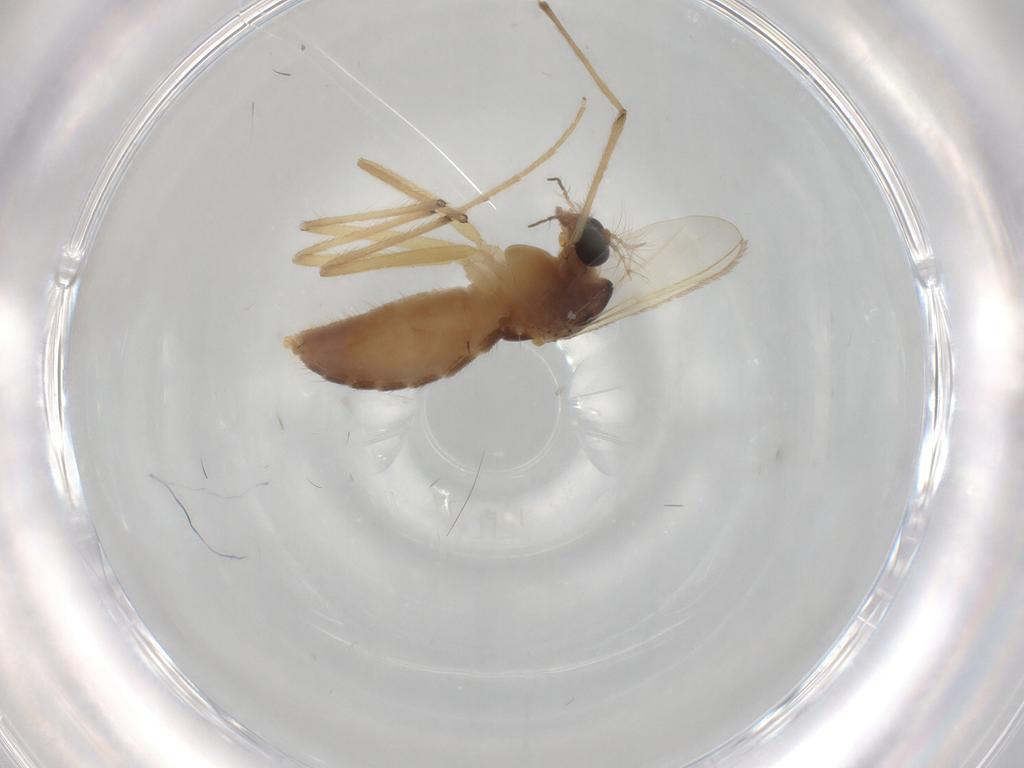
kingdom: Animalia
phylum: Arthropoda
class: Insecta
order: Diptera
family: Chironomidae
